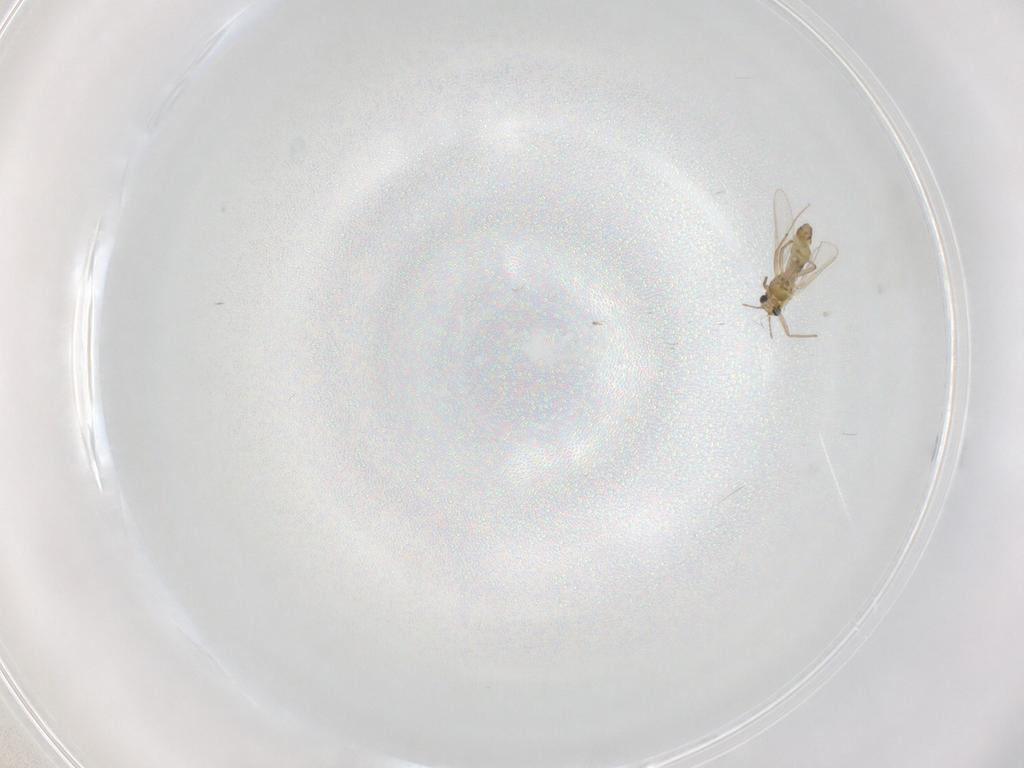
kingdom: Animalia
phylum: Arthropoda
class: Insecta
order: Diptera
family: Chironomidae
